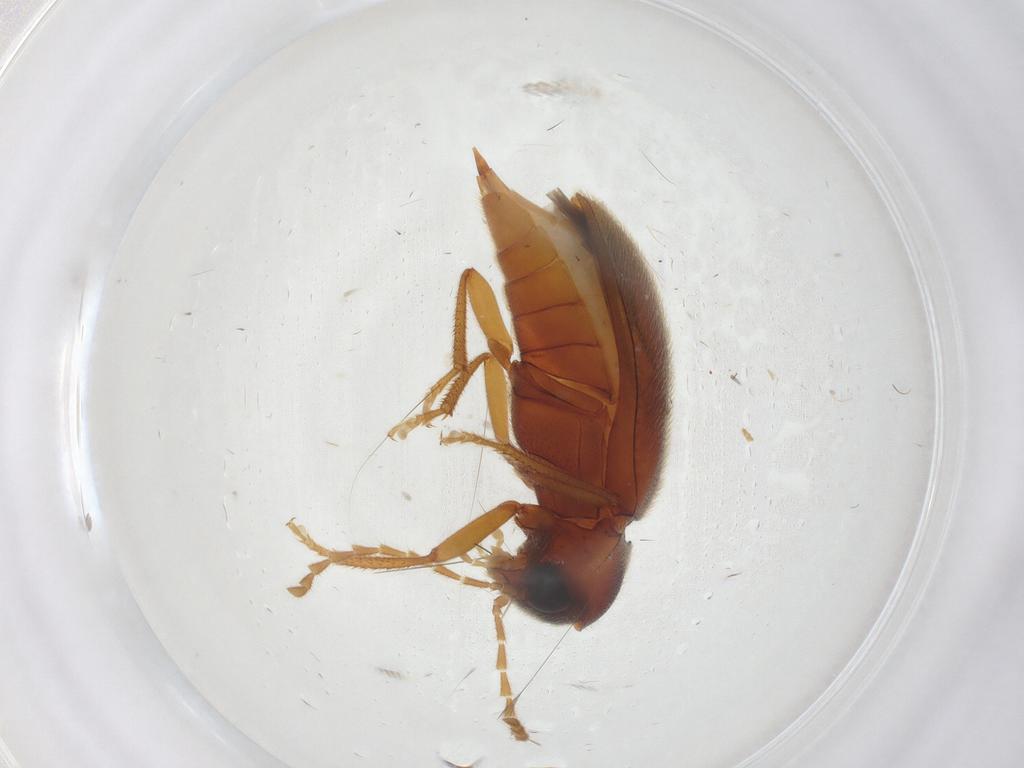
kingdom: Animalia
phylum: Arthropoda
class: Insecta
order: Coleoptera
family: Ptilodactylidae
